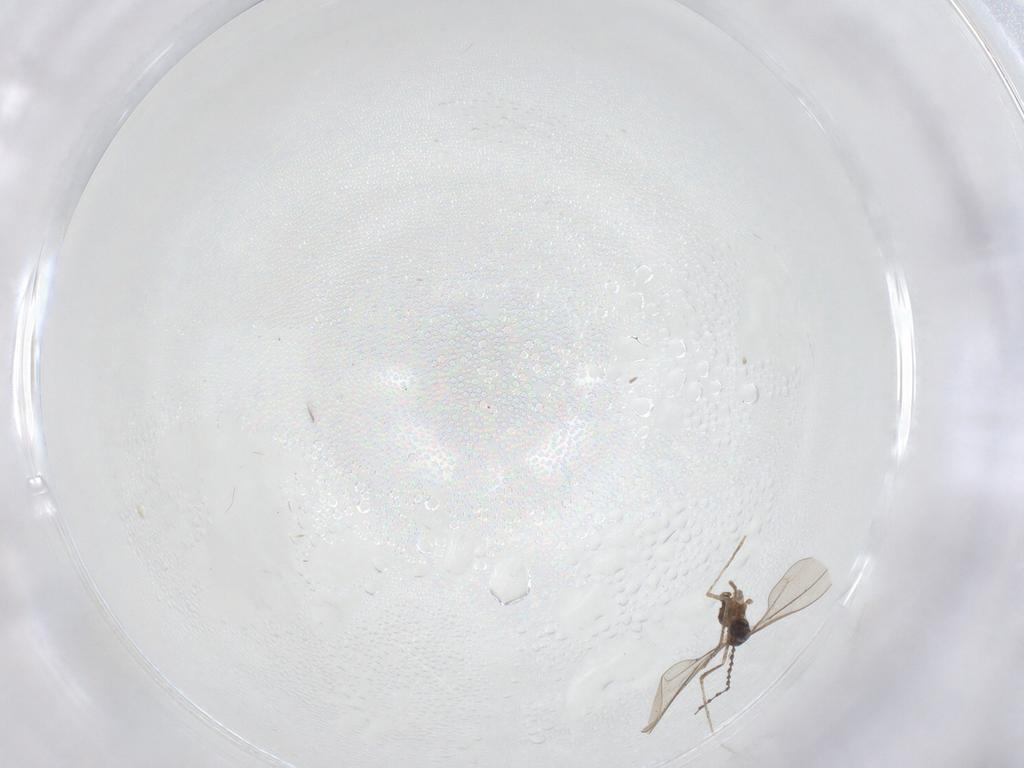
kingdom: Animalia
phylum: Arthropoda
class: Insecta
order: Diptera
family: Cecidomyiidae
